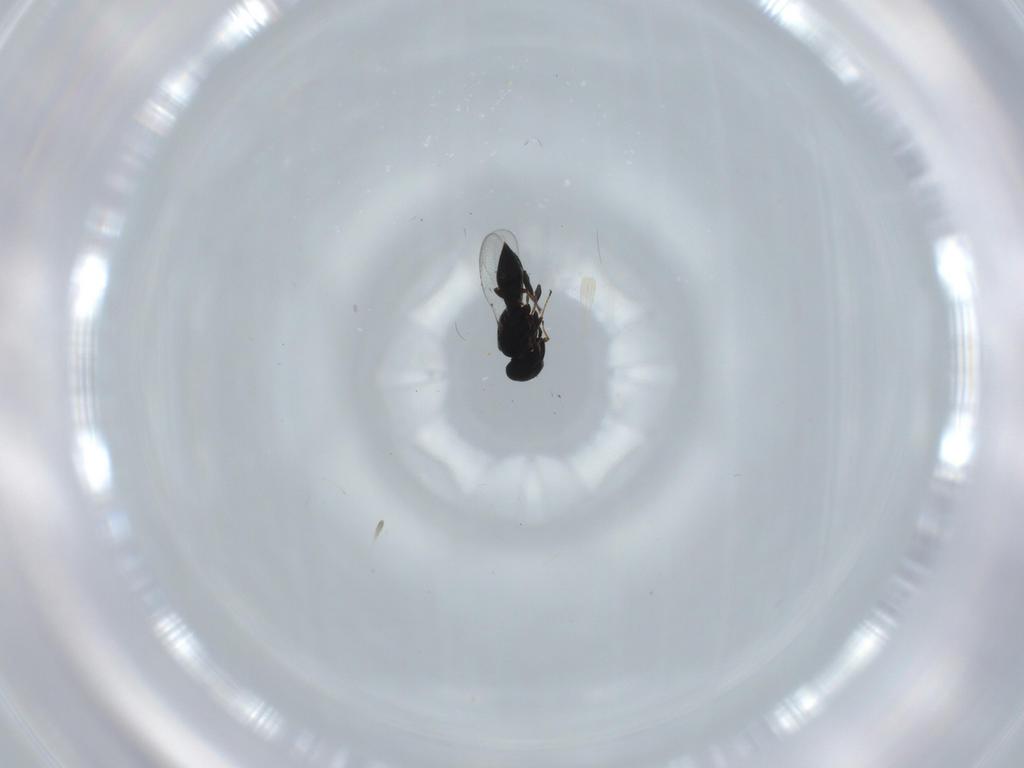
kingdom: Animalia
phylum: Arthropoda
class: Insecta
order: Hymenoptera
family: Platygastridae
